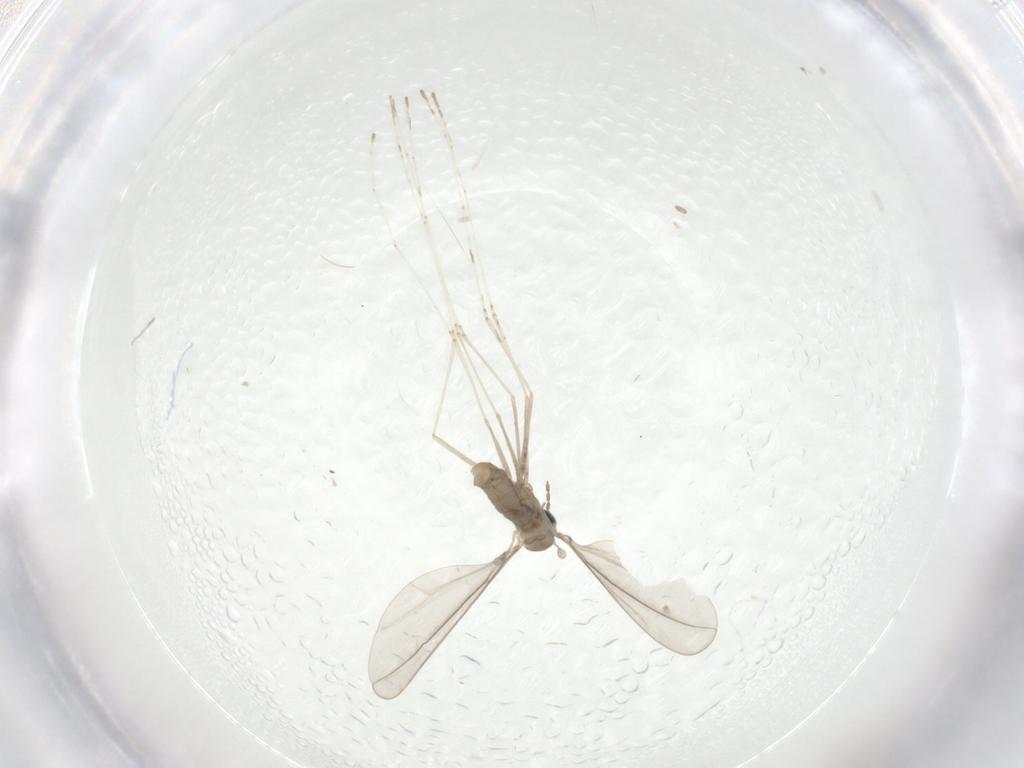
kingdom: Animalia
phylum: Arthropoda
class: Insecta
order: Diptera
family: Cecidomyiidae
